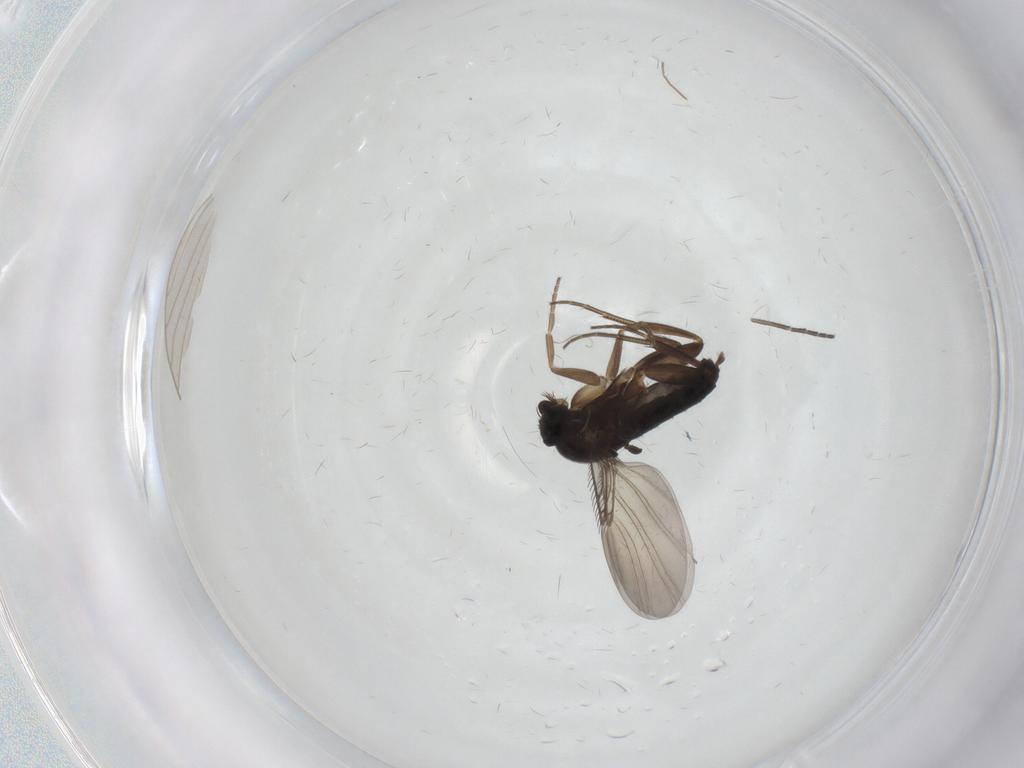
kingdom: Animalia
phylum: Arthropoda
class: Insecta
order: Diptera
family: Phoridae
